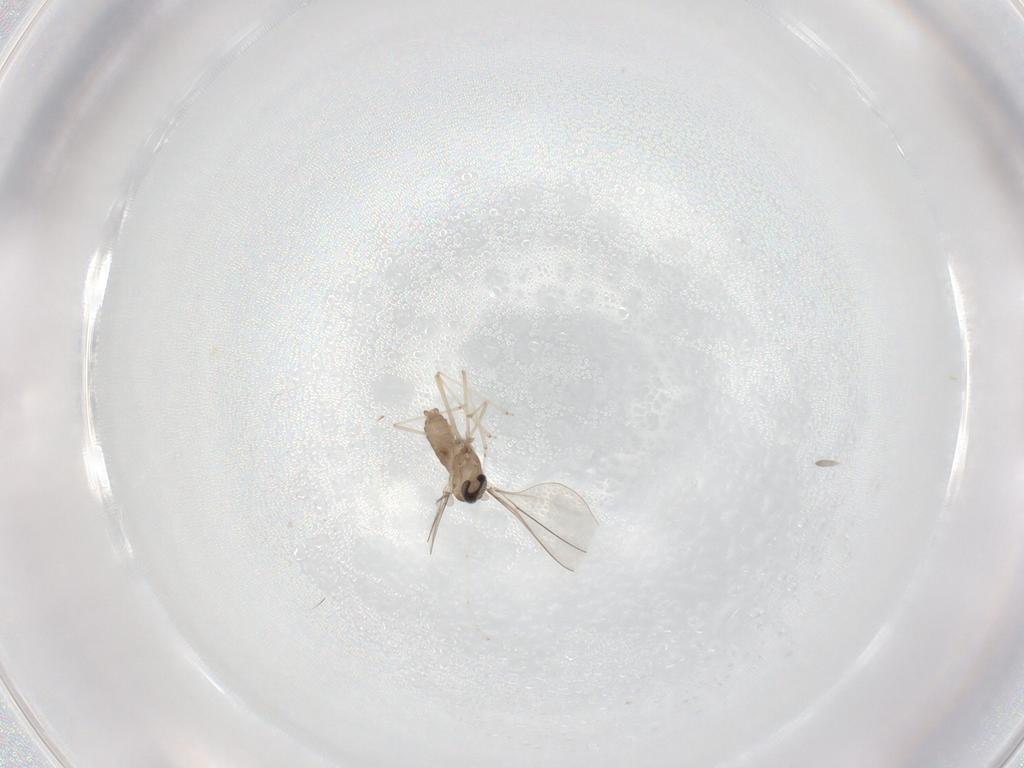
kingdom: Animalia
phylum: Arthropoda
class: Insecta
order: Diptera
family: Cecidomyiidae
